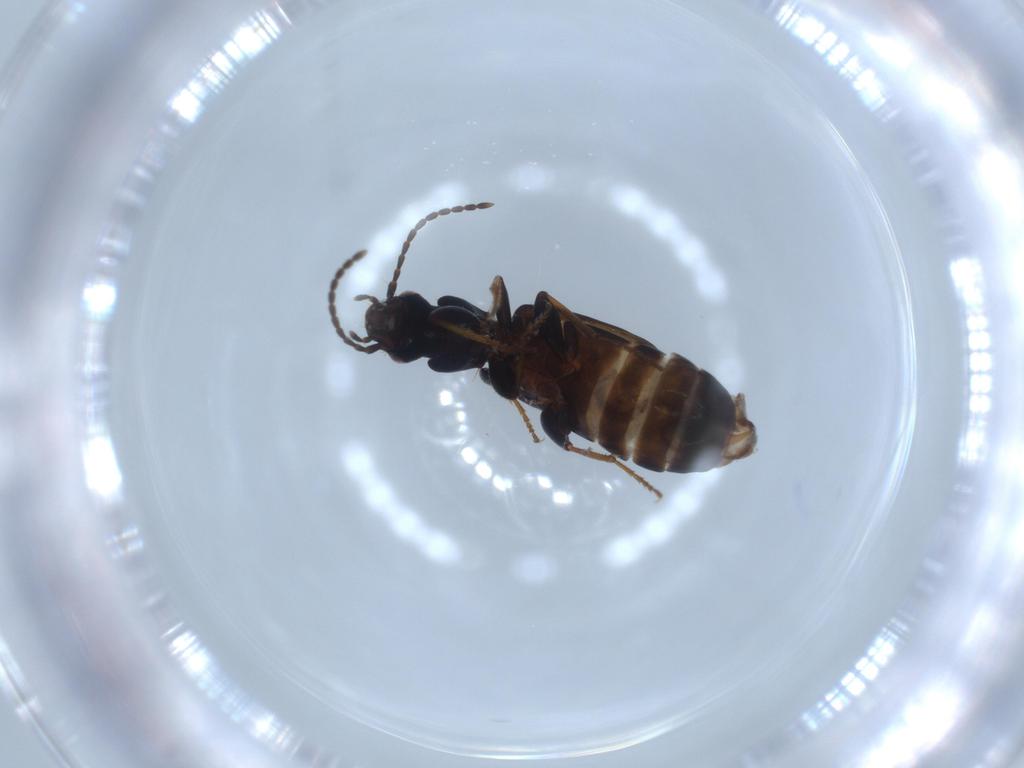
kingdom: Animalia
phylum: Arthropoda
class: Insecta
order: Coleoptera
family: Carabidae
